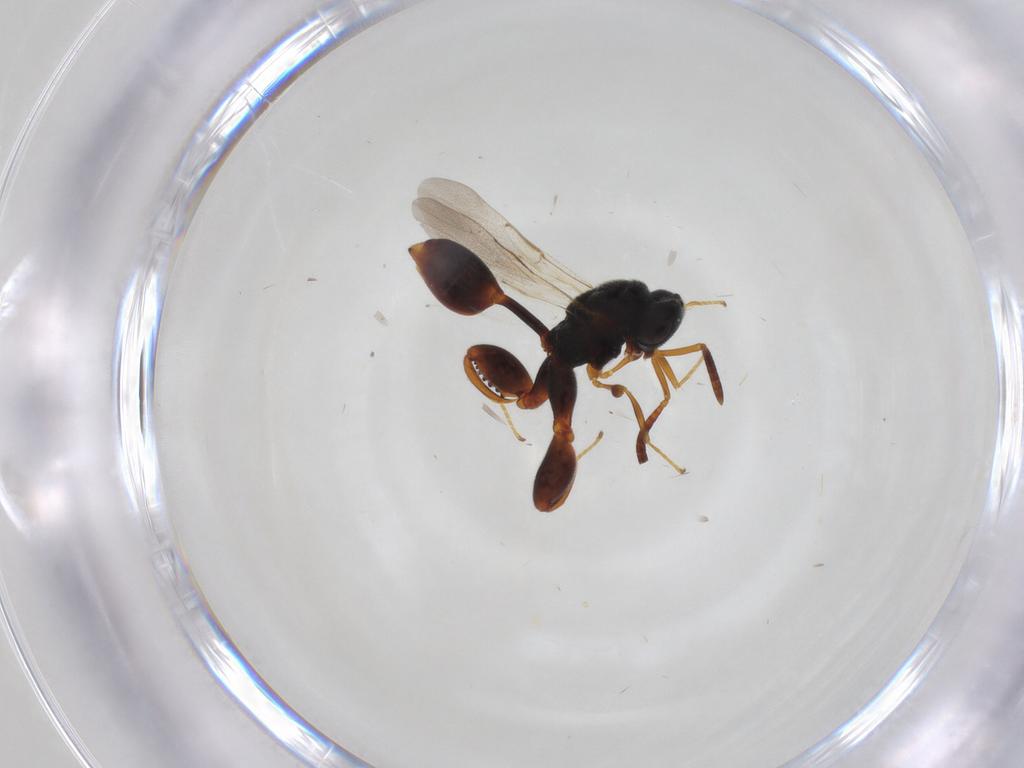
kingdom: Animalia
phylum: Arthropoda
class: Insecta
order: Hymenoptera
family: Chalcididae
